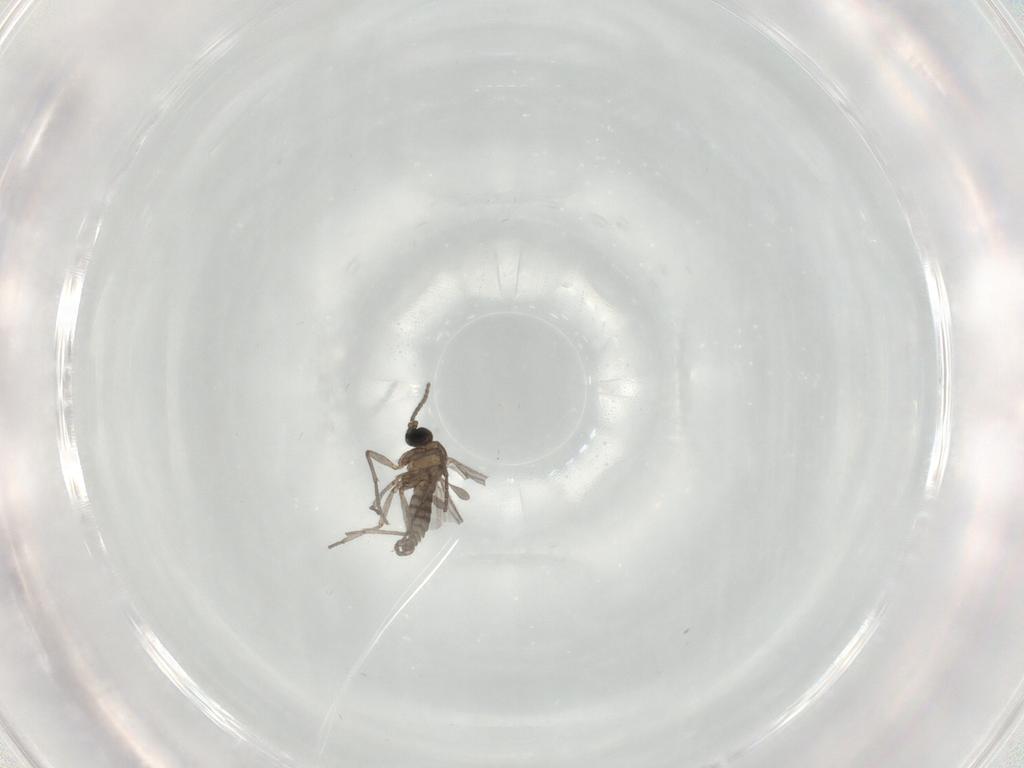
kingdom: Animalia
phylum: Arthropoda
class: Insecta
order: Diptera
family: Sciaridae
